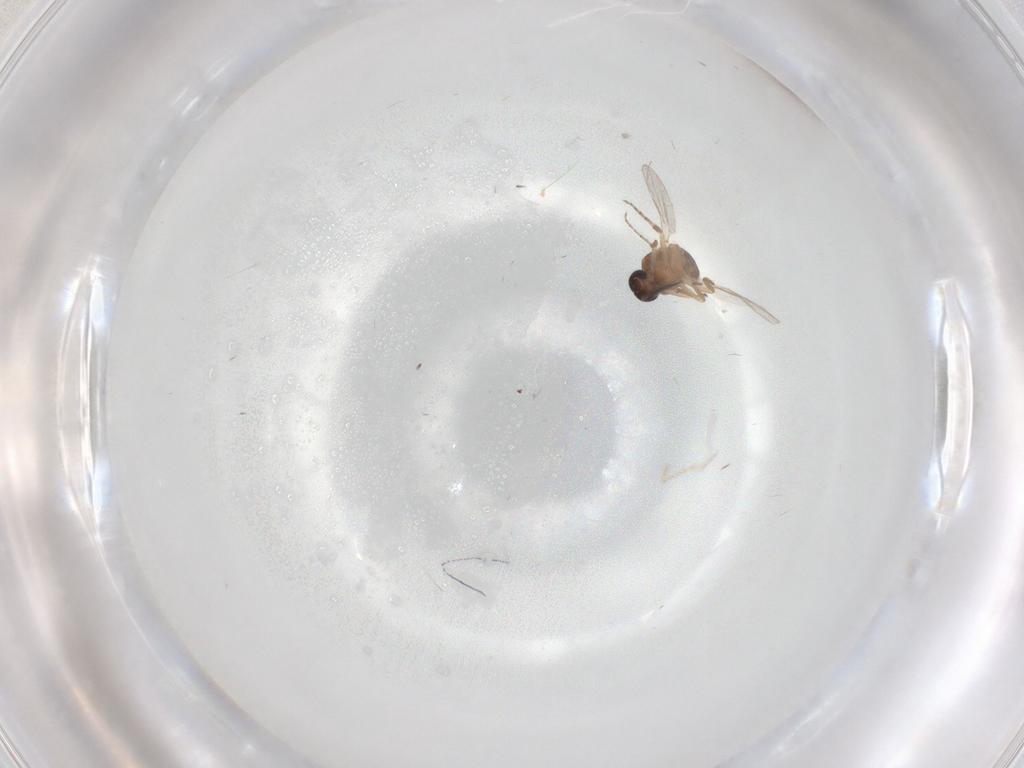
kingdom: Animalia
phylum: Arthropoda
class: Insecta
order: Diptera
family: Ceratopogonidae
